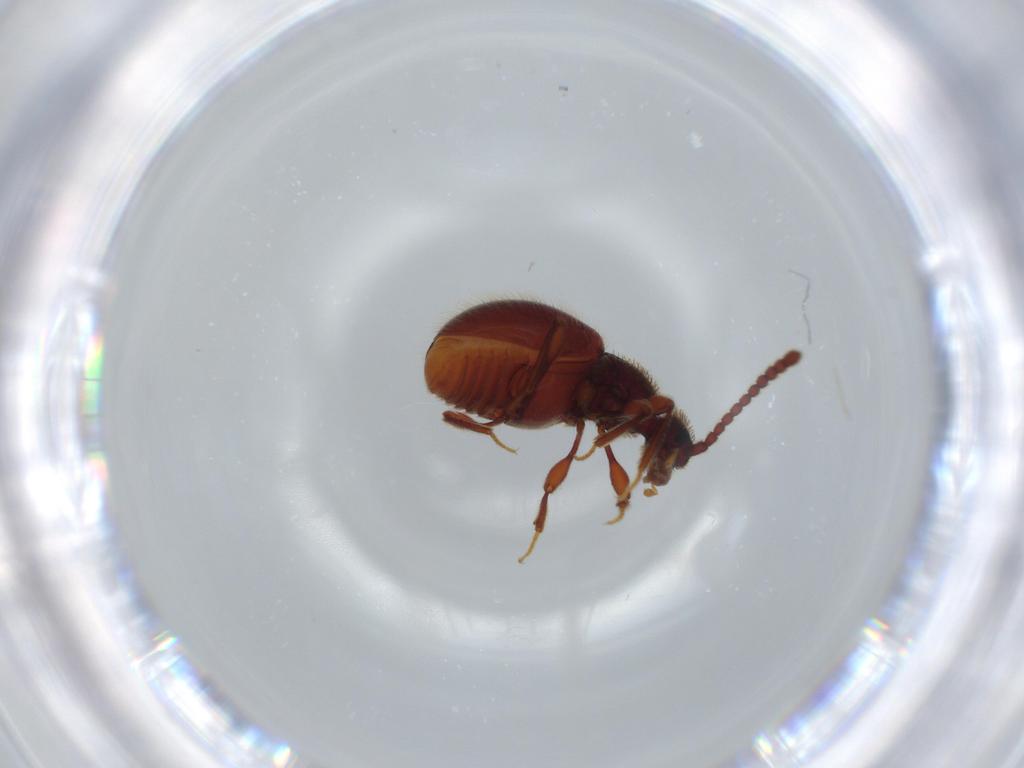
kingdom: Animalia
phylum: Arthropoda
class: Insecta
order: Coleoptera
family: Staphylinidae
